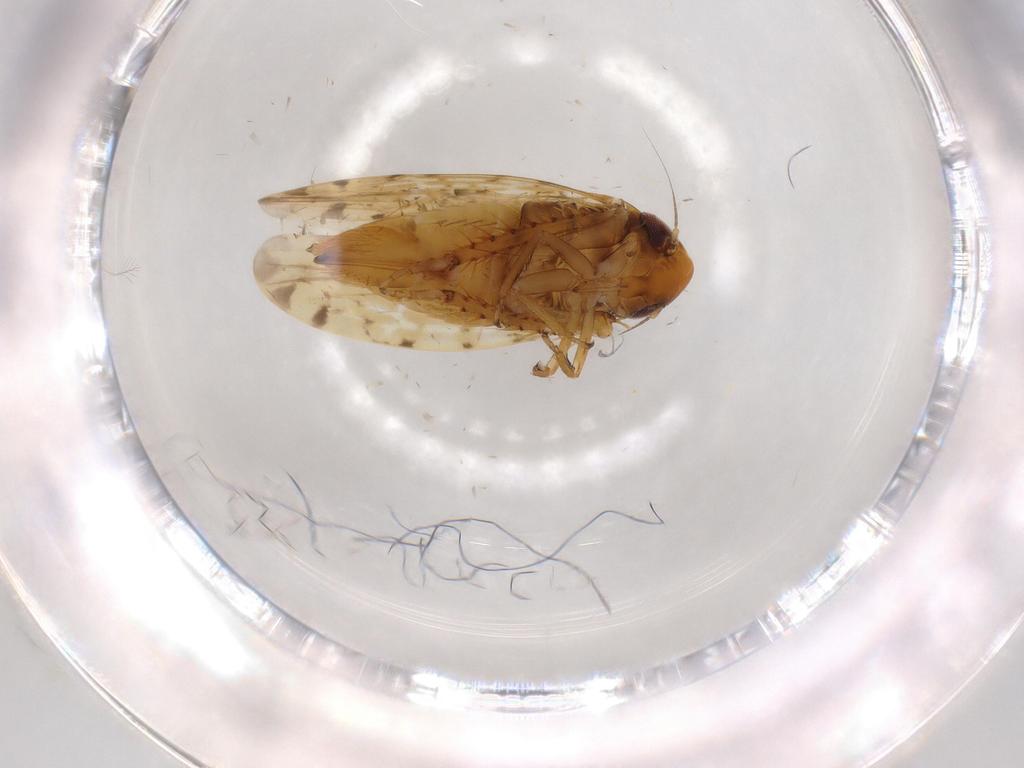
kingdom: Animalia
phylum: Arthropoda
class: Insecta
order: Hemiptera
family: Cicadellidae
